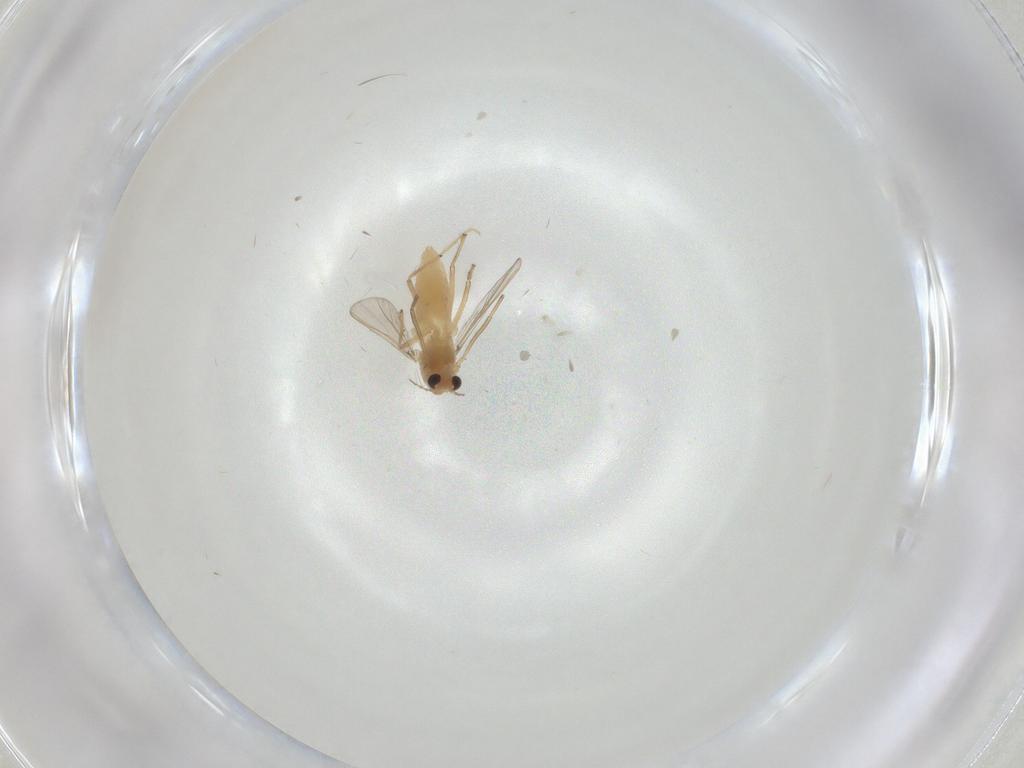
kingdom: Animalia
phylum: Arthropoda
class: Insecta
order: Diptera
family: Chironomidae
